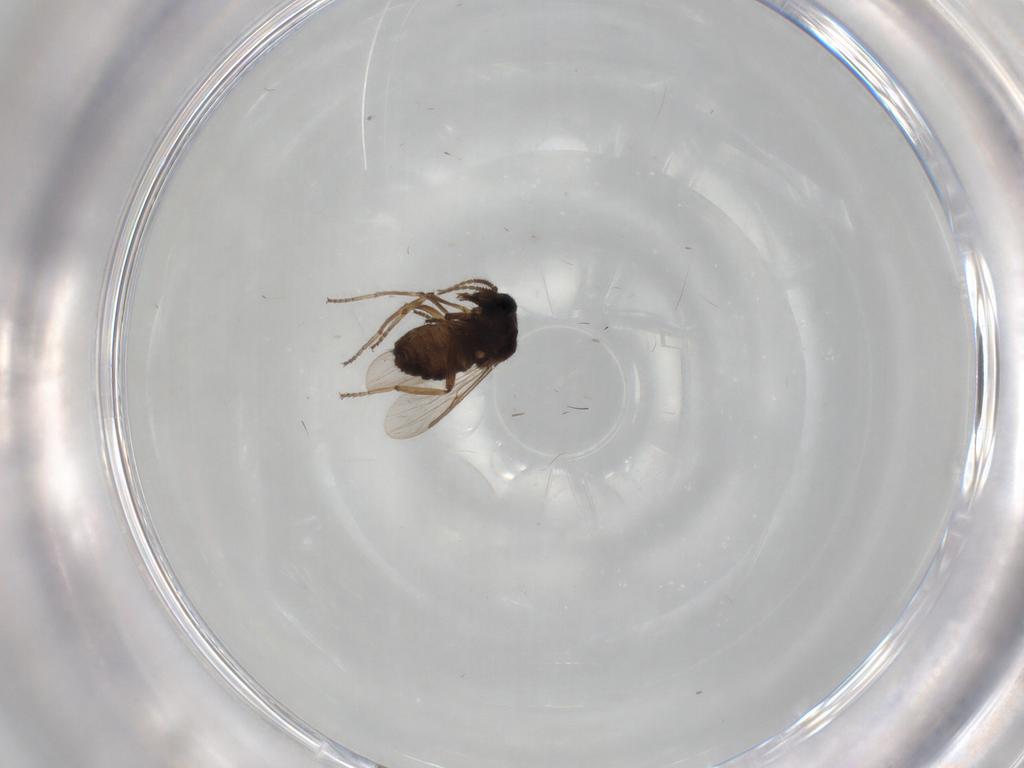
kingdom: Animalia
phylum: Arthropoda
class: Insecta
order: Diptera
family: Ceratopogonidae
